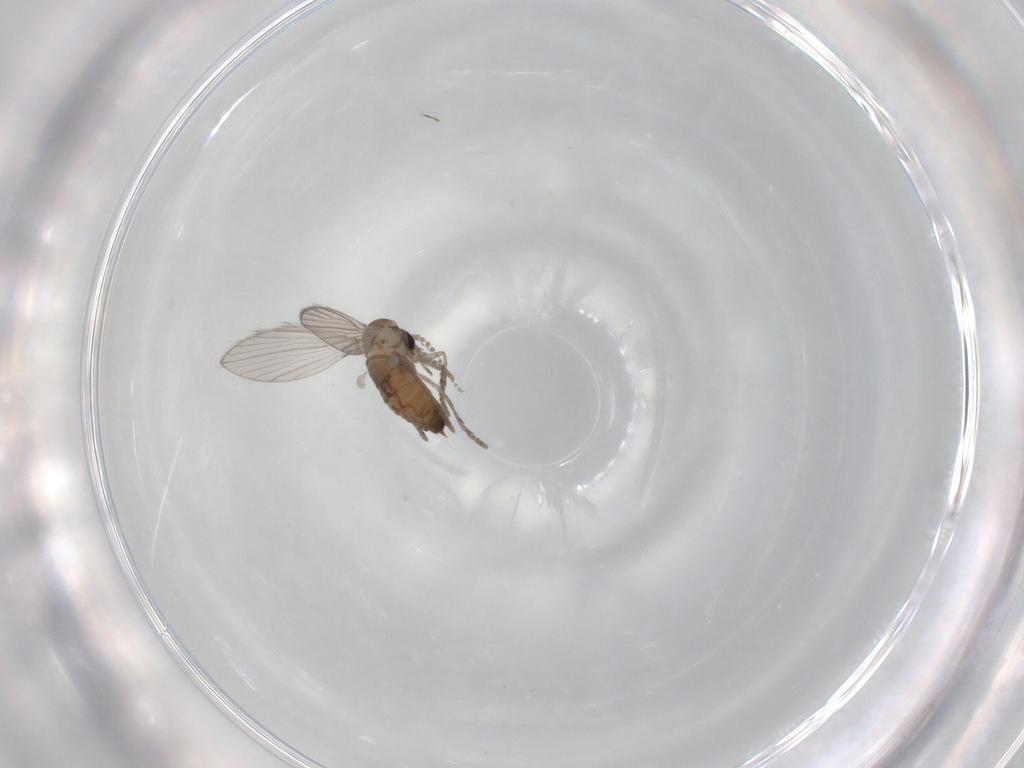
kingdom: Animalia
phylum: Arthropoda
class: Insecta
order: Diptera
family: Psychodidae
